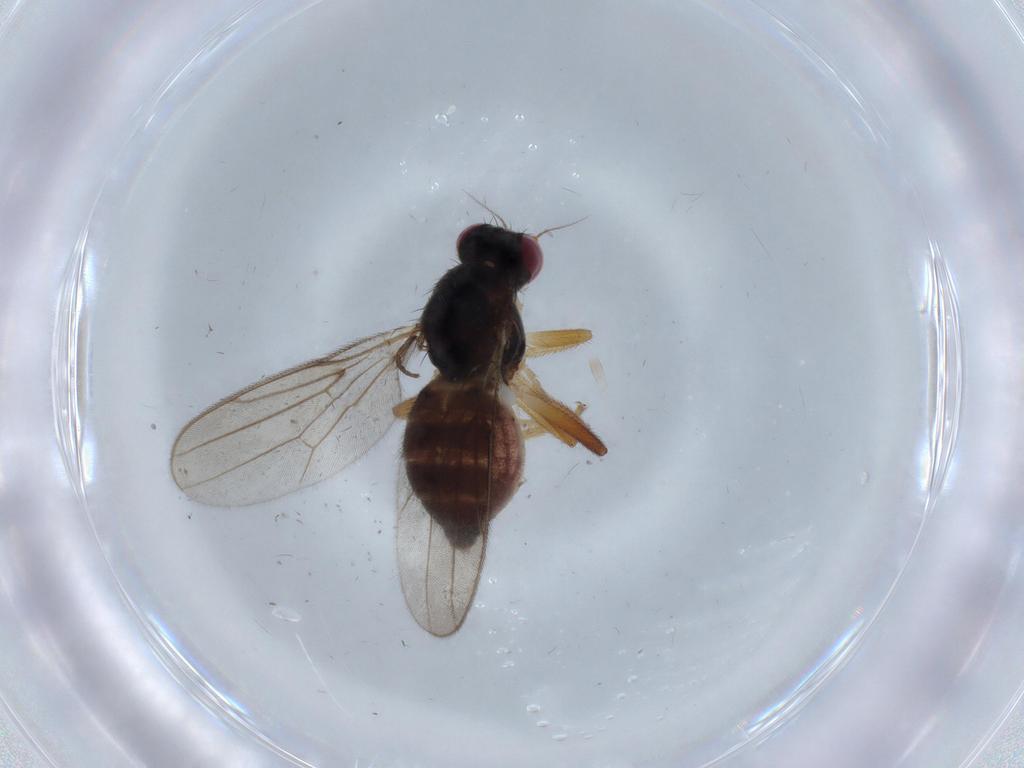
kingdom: Animalia
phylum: Arthropoda
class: Insecta
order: Diptera
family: Chloropidae
